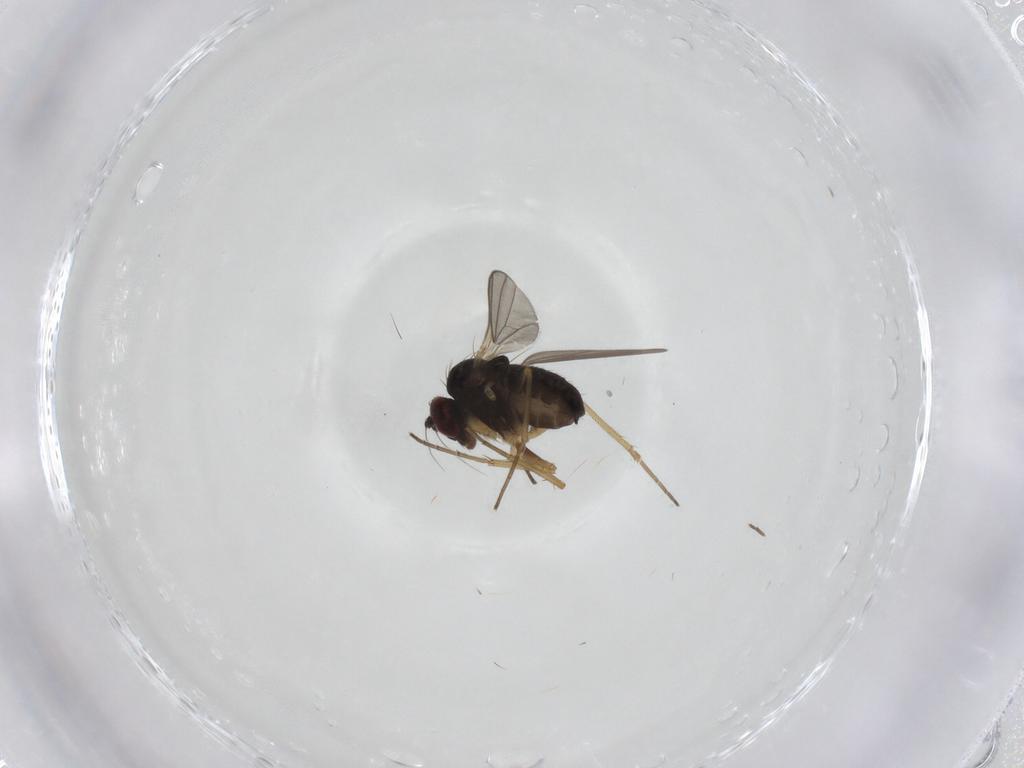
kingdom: Animalia
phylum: Arthropoda
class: Insecta
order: Diptera
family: Dolichopodidae
